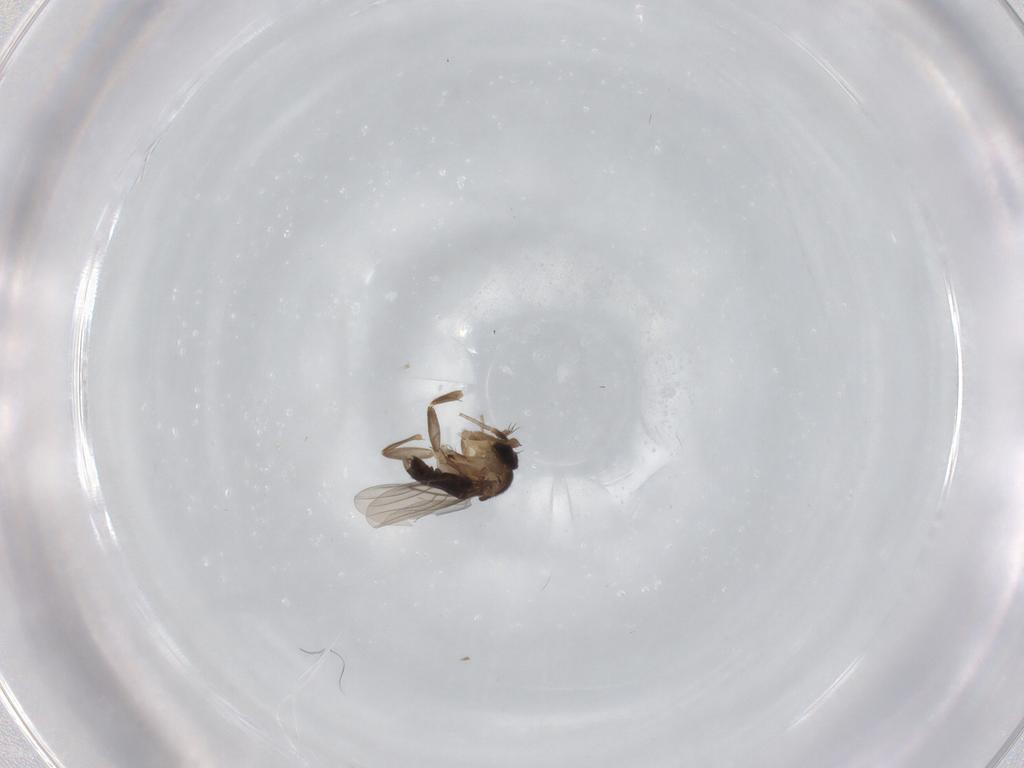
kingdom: Animalia
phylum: Arthropoda
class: Insecta
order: Diptera
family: Phoridae
